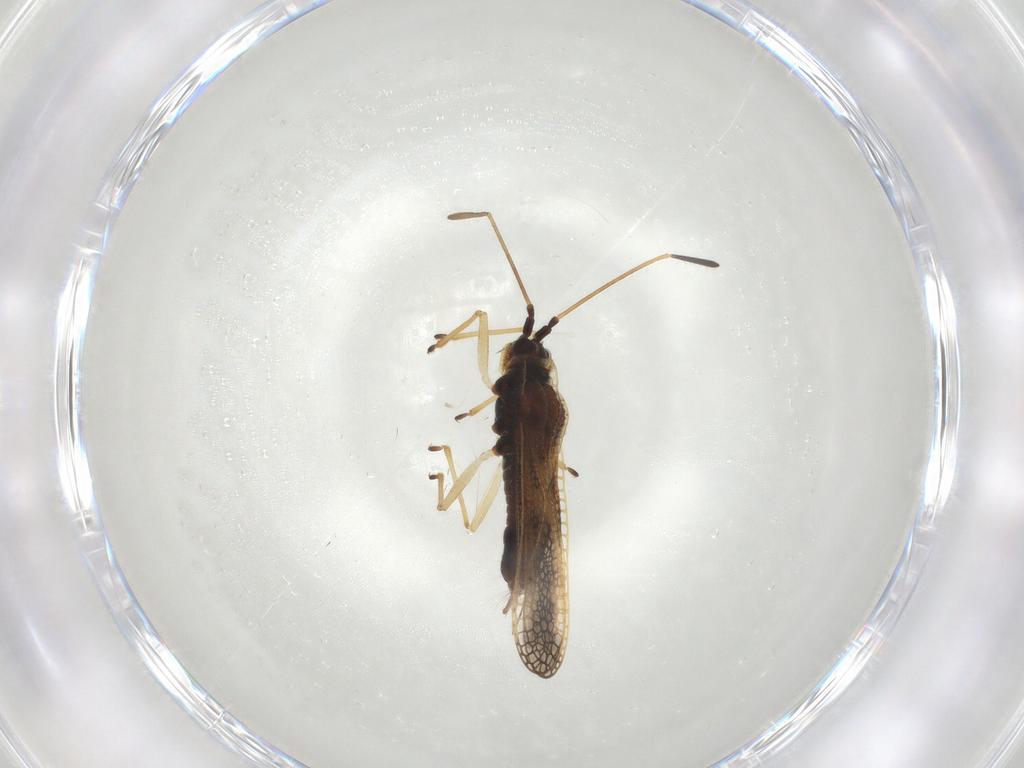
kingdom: Animalia
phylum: Arthropoda
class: Insecta
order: Hemiptera
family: Tingidae
